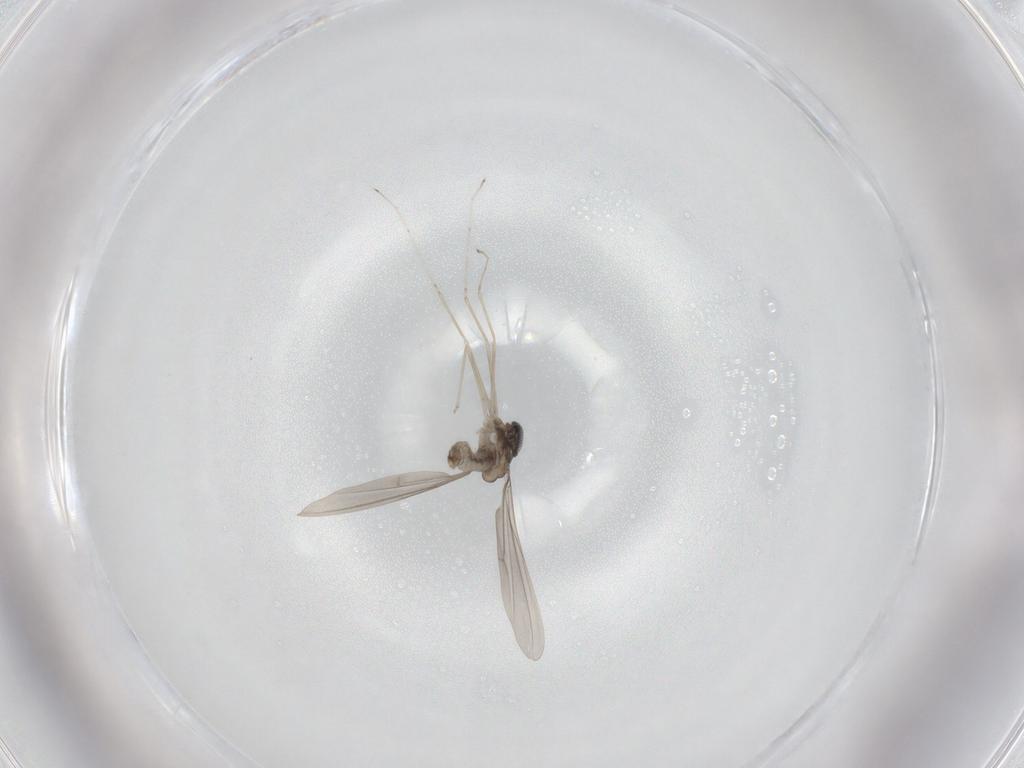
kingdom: Animalia
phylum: Arthropoda
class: Insecta
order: Diptera
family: Cecidomyiidae
